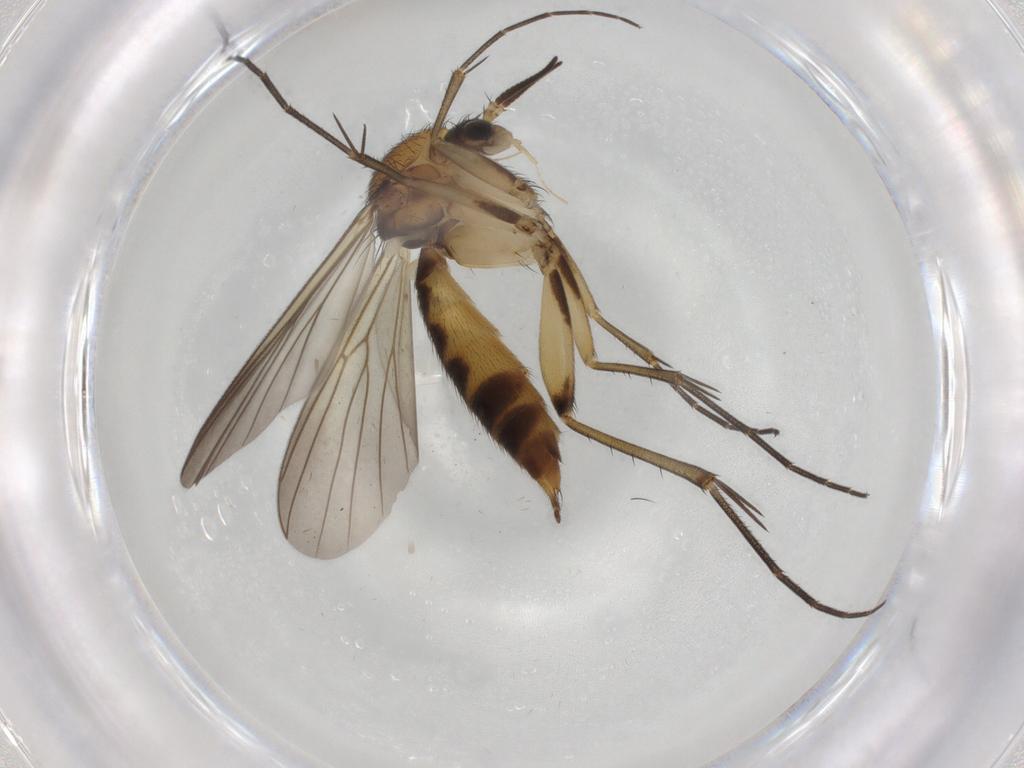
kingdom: Animalia
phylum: Arthropoda
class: Insecta
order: Diptera
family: Mycetophilidae
